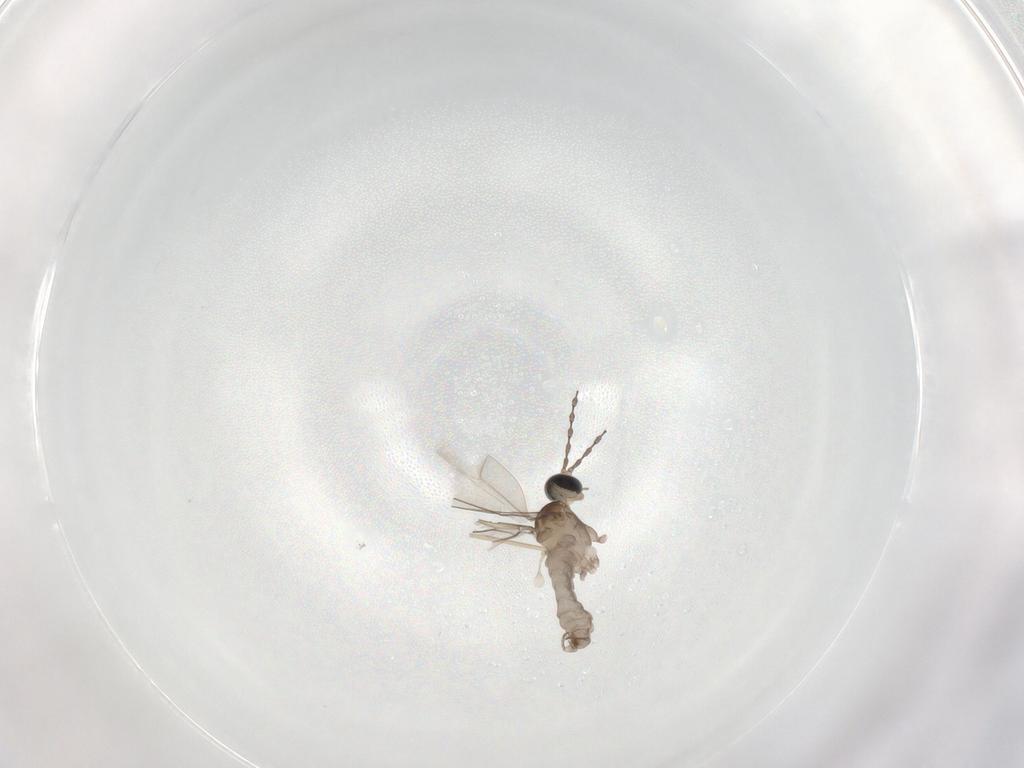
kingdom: Animalia
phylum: Arthropoda
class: Insecta
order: Diptera
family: Cecidomyiidae
